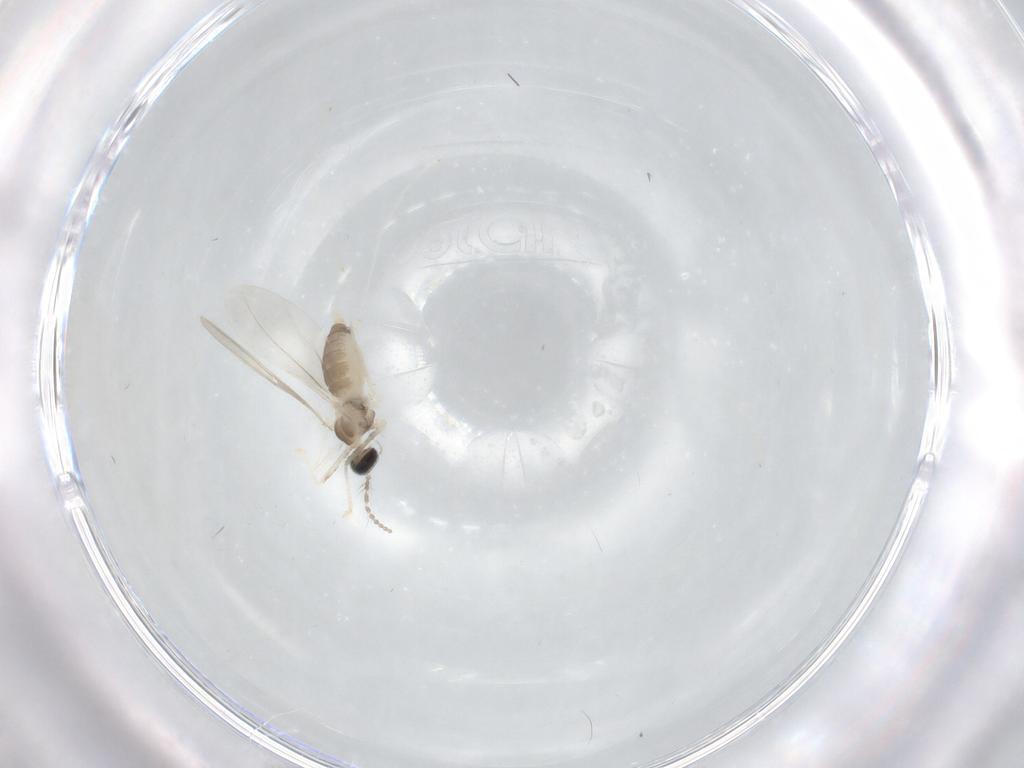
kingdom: Animalia
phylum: Arthropoda
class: Insecta
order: Diptera
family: Cecidomyiidae
